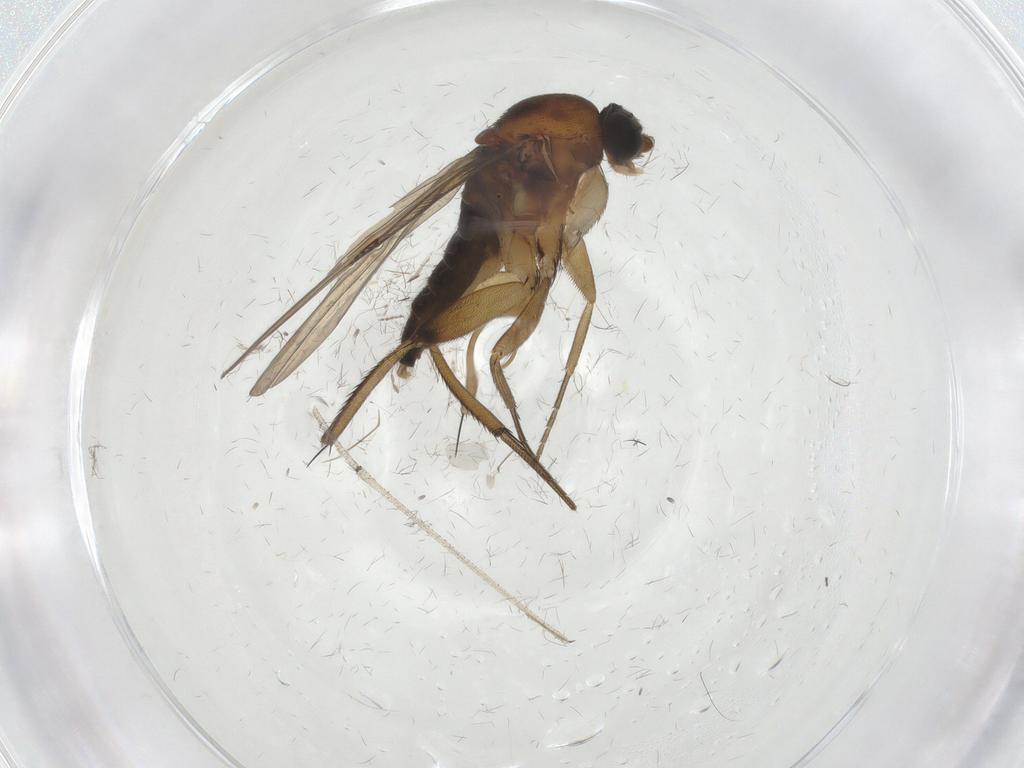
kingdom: Animalia
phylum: Arthropoda
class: Insecta
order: Diptera
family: Phoridae
